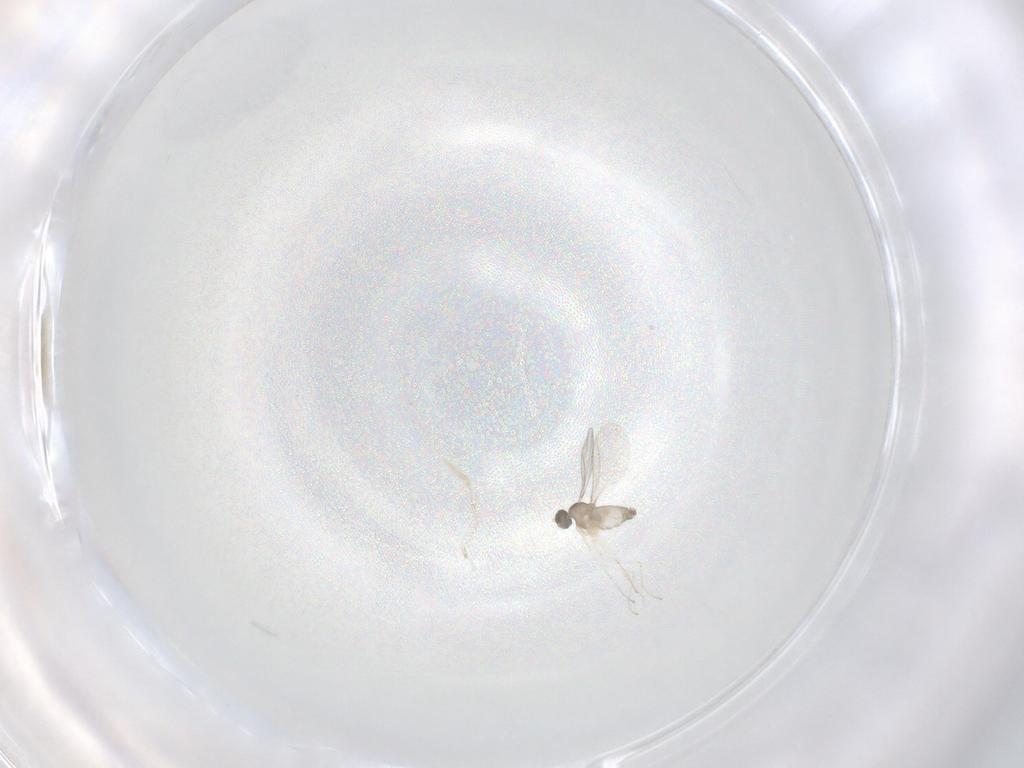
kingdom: Animalia
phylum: Arthropoda
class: Insecta
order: Diptera
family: Cecidomyiidae
